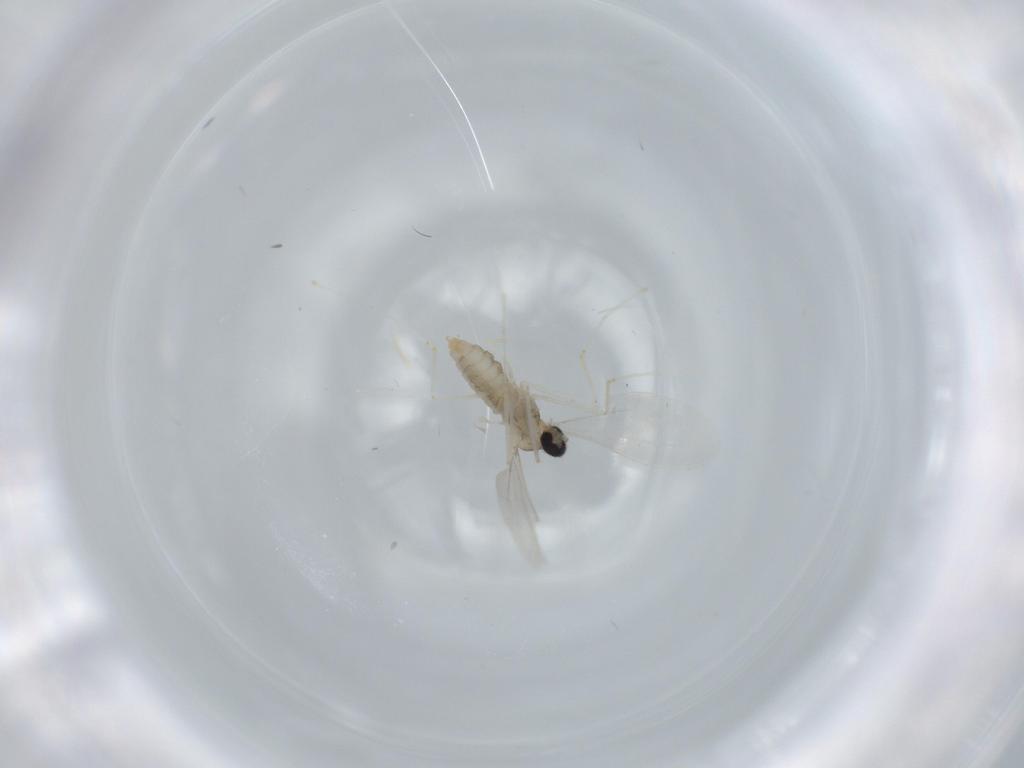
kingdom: Animalia
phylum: Arthropoda
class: Insecta
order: Diptera
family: Cecidomyiidae
